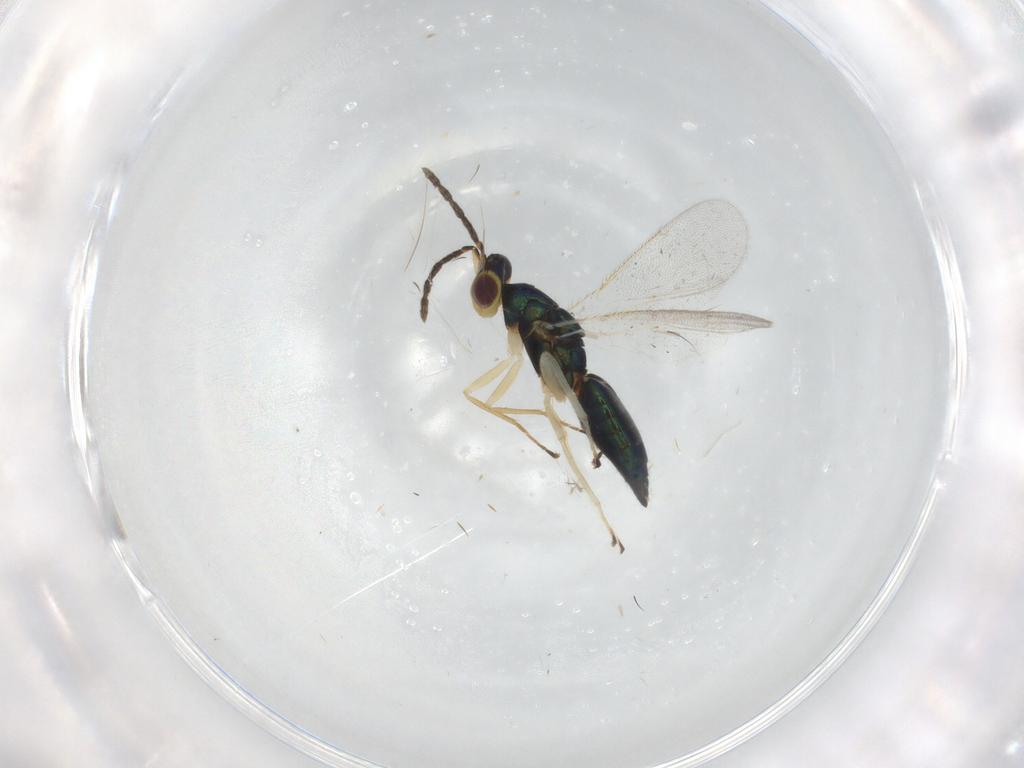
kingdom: Animalia
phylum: Arthropoda
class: Insecta
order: Hymenoptera
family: Eulophidae
